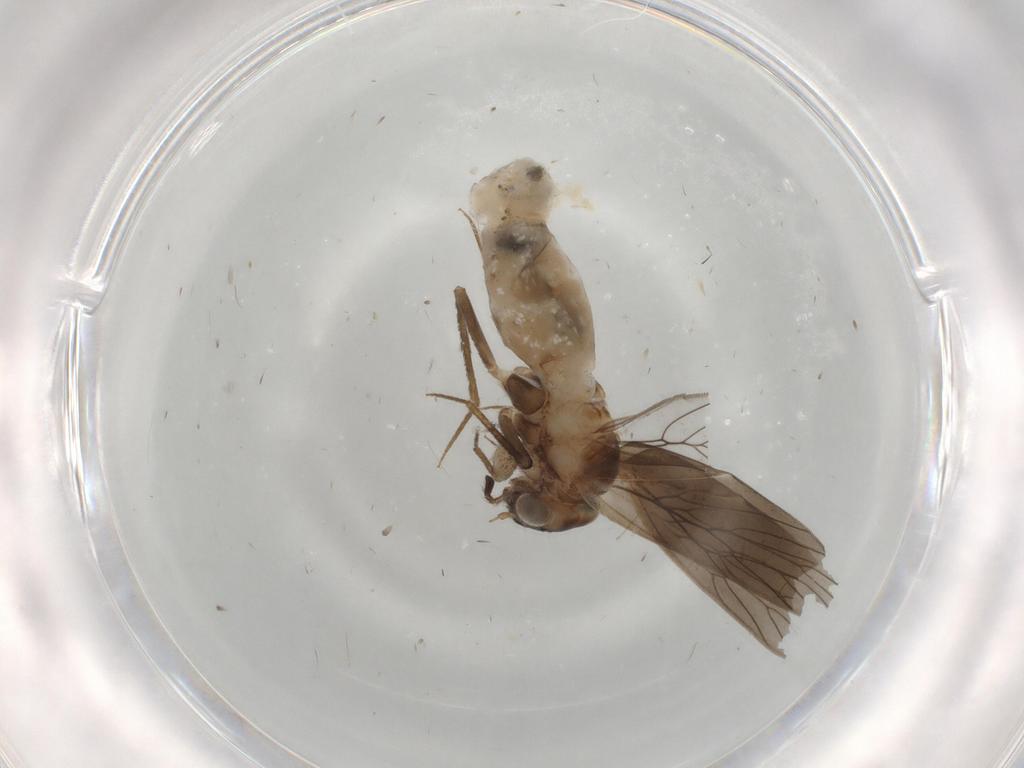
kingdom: Animalia
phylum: Arthropoda
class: Insecta
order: Psocodea
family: Lepidopsocidae
